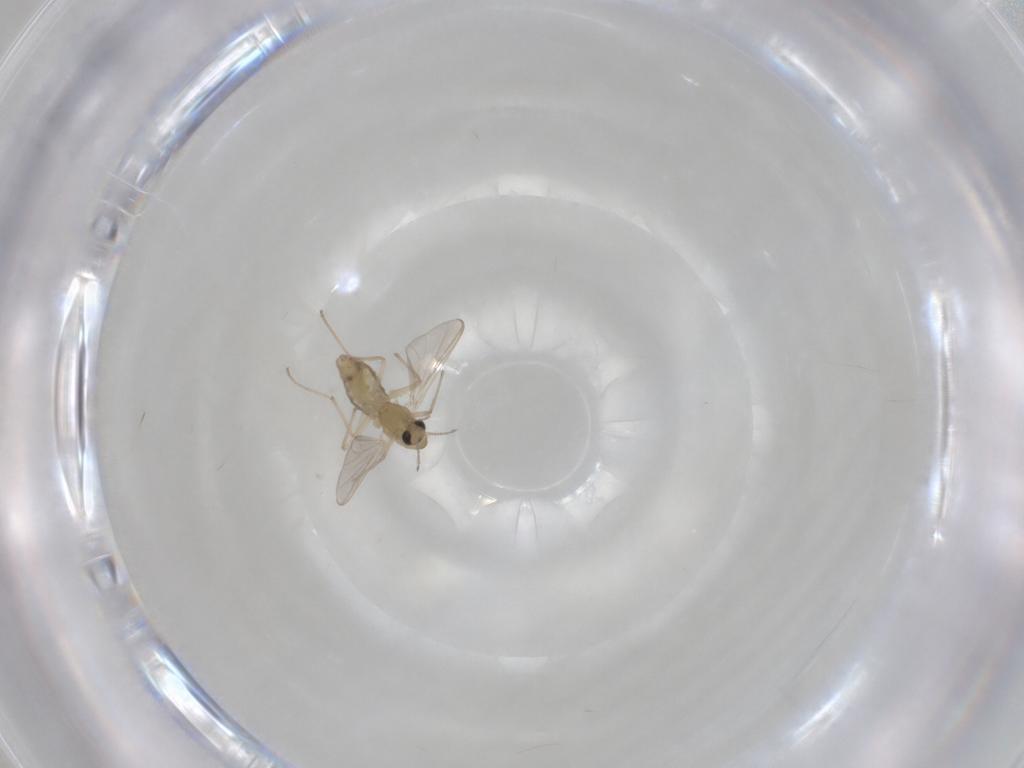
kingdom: Animalia
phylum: Arthropoda
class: Insecta
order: Diptera
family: Chironomidae
